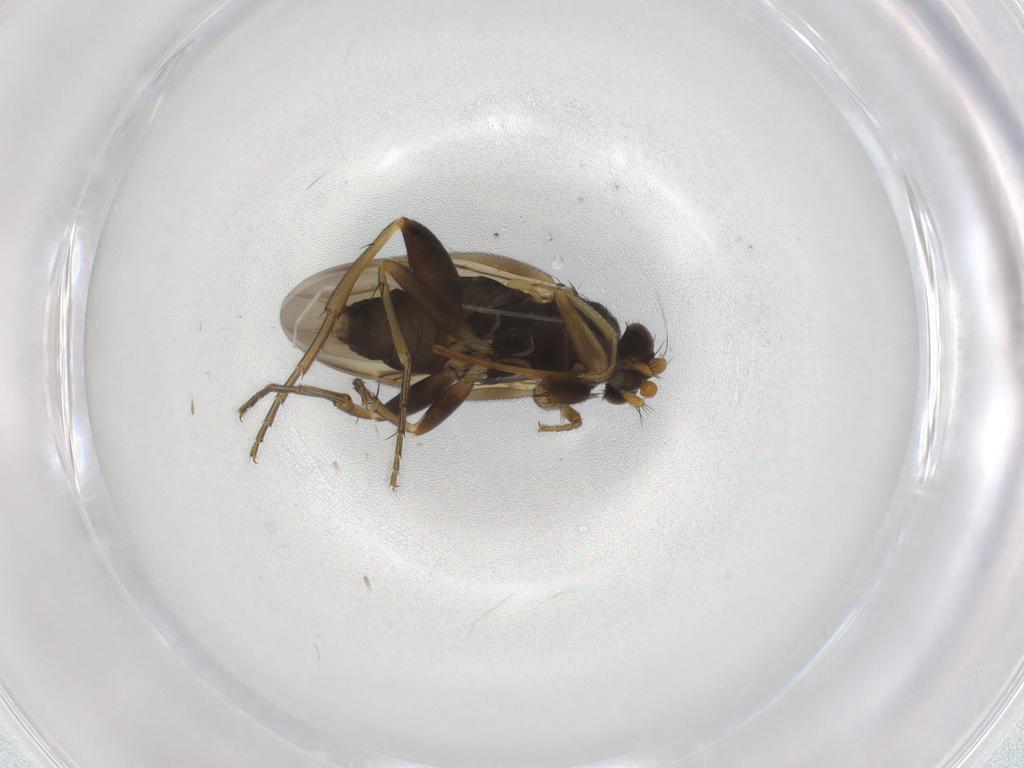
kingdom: Animalia
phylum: Arthropoda
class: Insecta
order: Diptera
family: Phoridae
